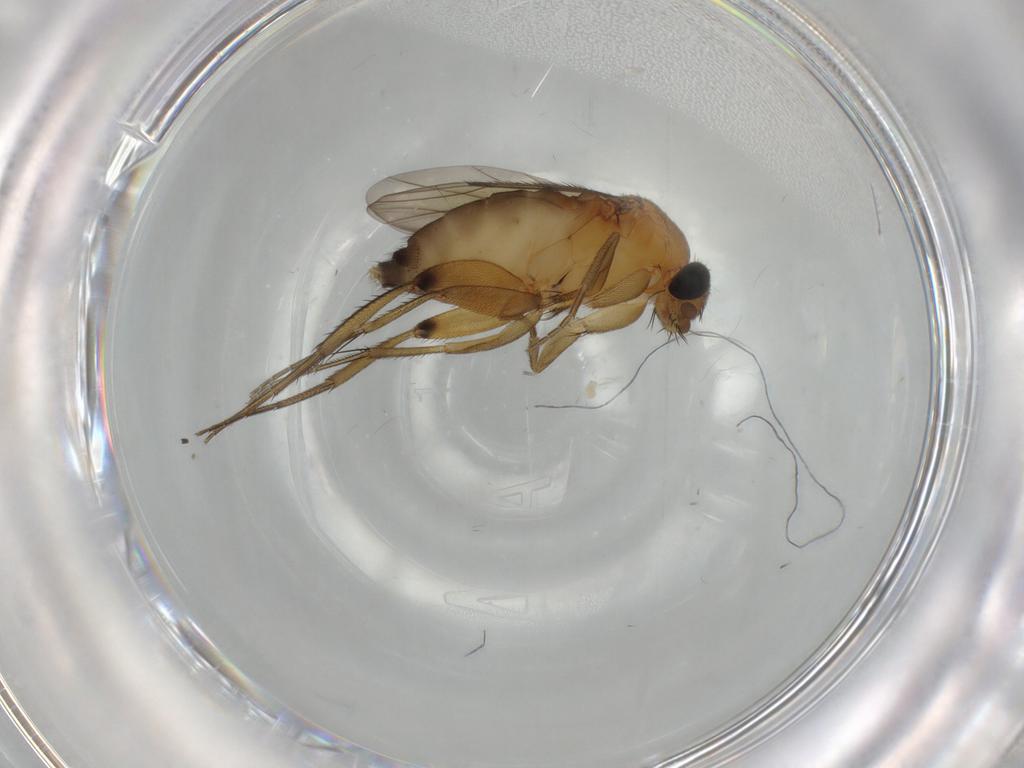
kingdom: Animalia
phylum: Arthropoda
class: Insecta
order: Diptera
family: Phoridae
